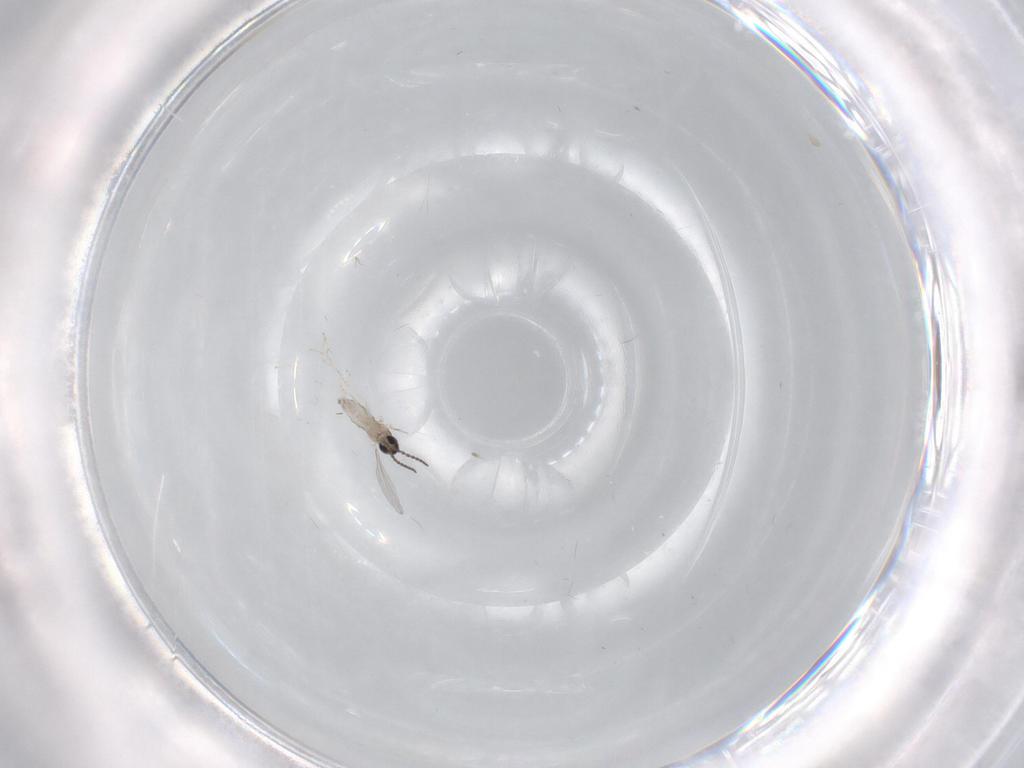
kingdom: Animalia
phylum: Arthropoda
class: Insecta
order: Diptera
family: Cecidomyiidae
